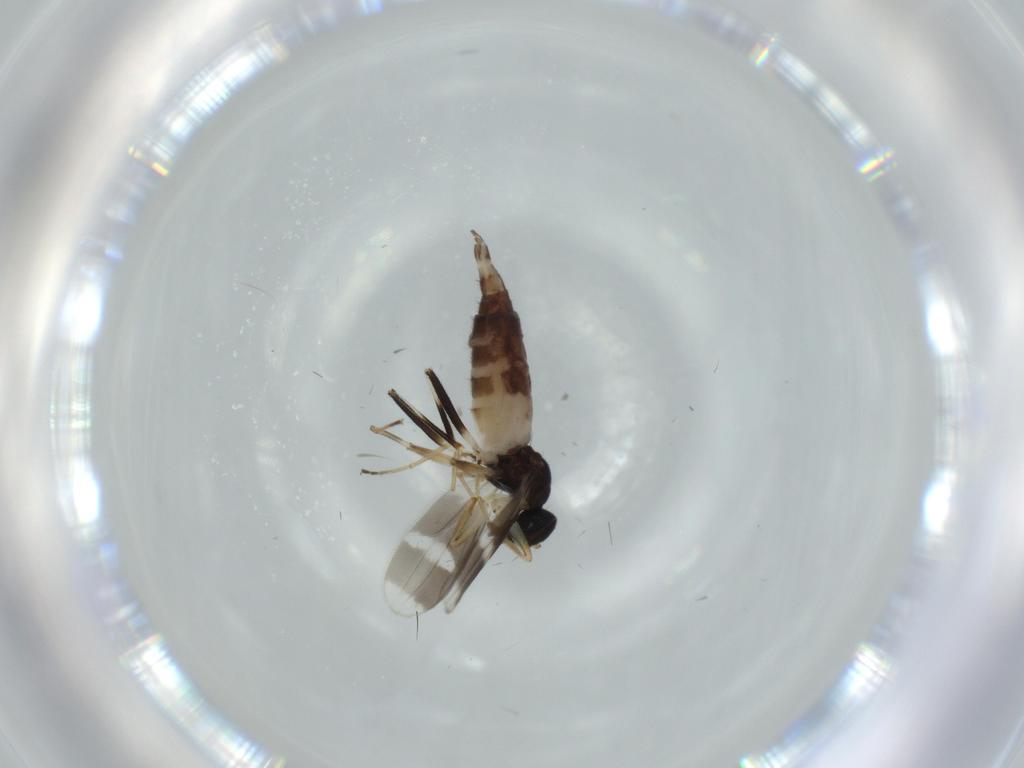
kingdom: Animalia
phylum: Arthropoda
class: Insecta
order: Diptera
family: Hybotidae
